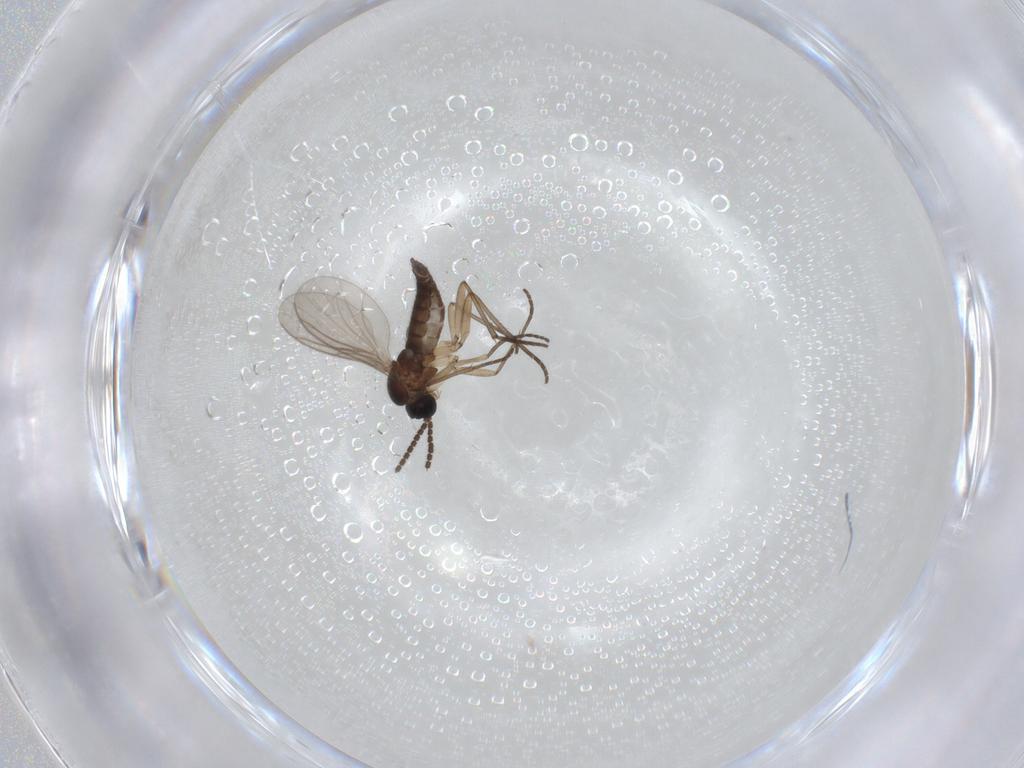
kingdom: Animalia
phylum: Arthropoda
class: Insecta
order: Diptera
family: Sciaridae
